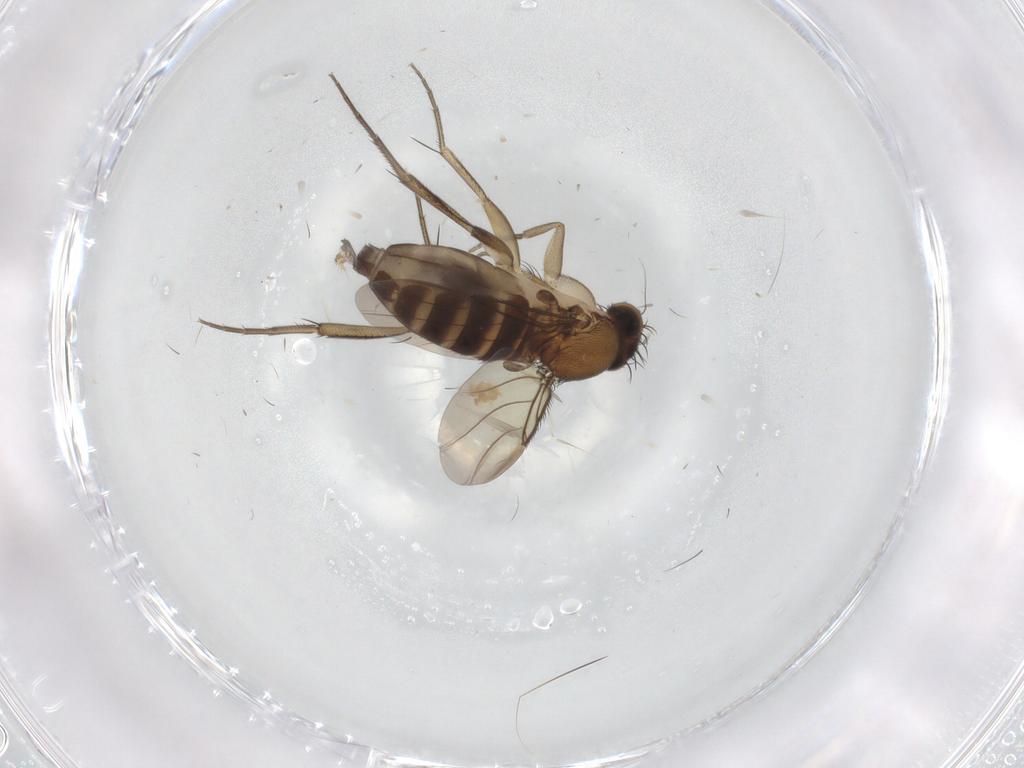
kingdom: Animalia
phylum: Arthropoda
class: Insecta
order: Diptera
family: Phoridae
